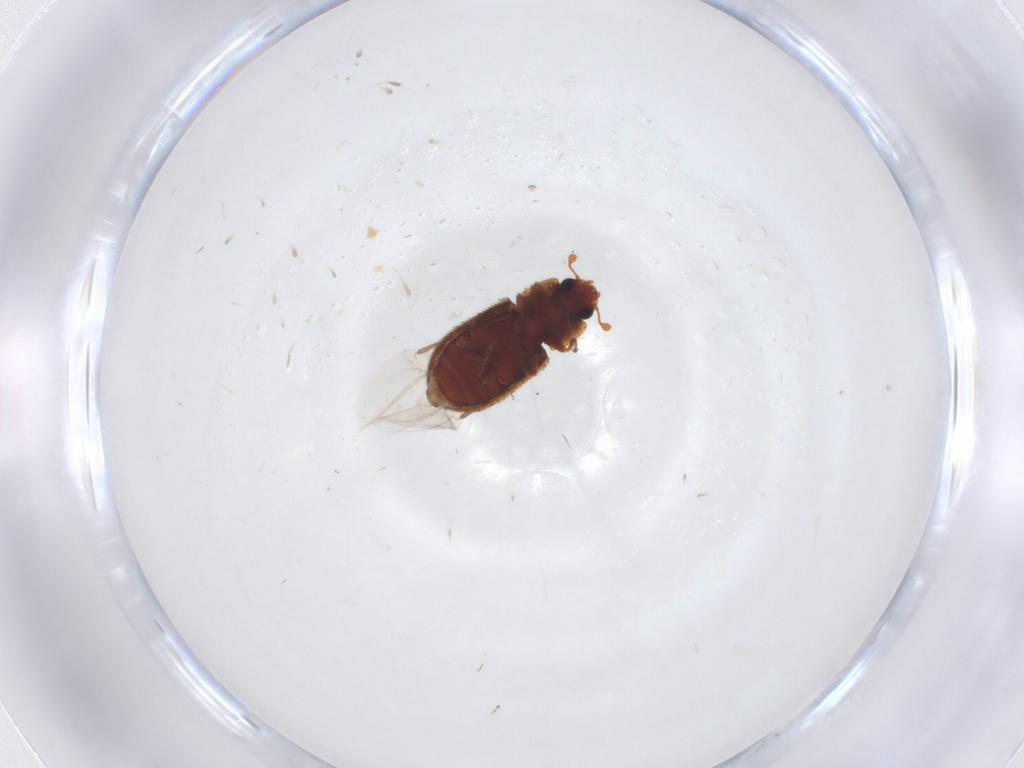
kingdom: Animalia
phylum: Arthropoda
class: Insecta
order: Coleoptera
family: Zopheridae
